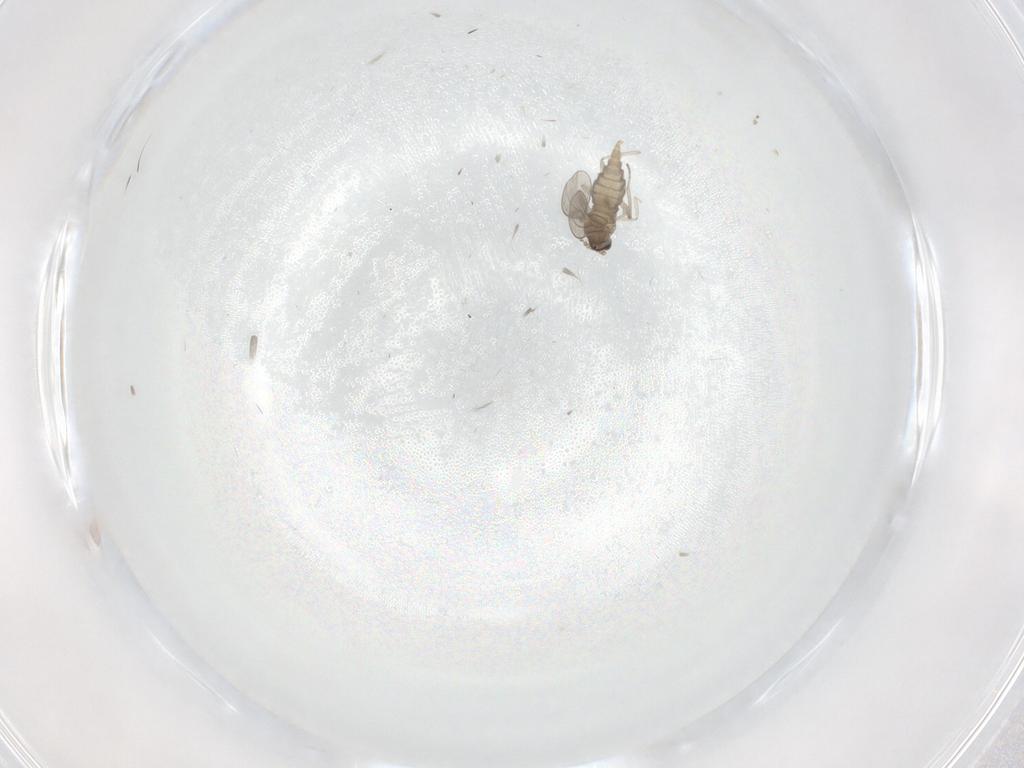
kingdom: Animalia
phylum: Arthropoda
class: Insecta
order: Diptera
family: Cecidomyiidae
